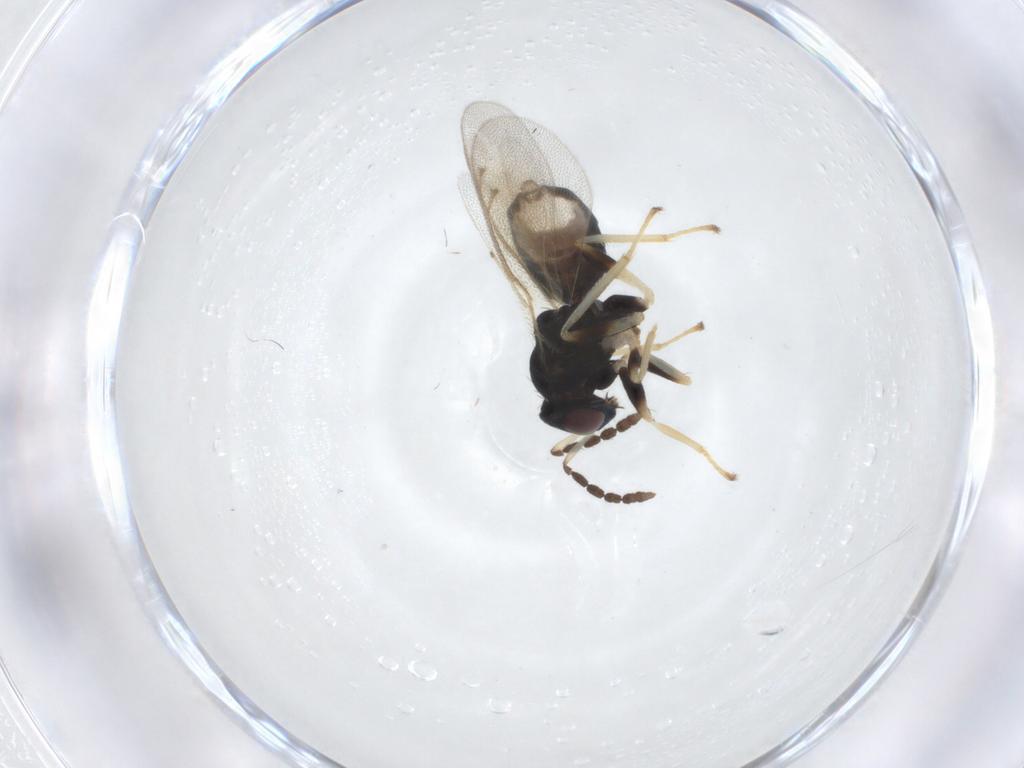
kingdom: Animalia
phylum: Arthropoda
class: Insecta
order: Hymenoptera
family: Eulophidae
